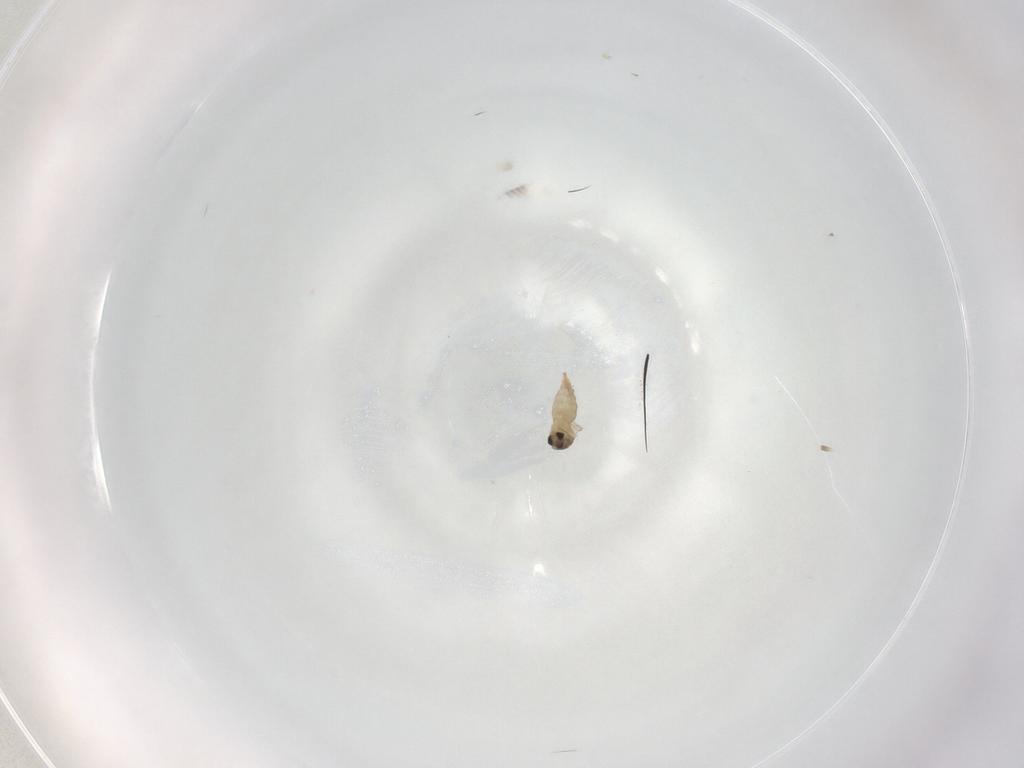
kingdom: Animalia
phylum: Arthropoda
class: Insecta
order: Diptera
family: Cecidomyiidae
